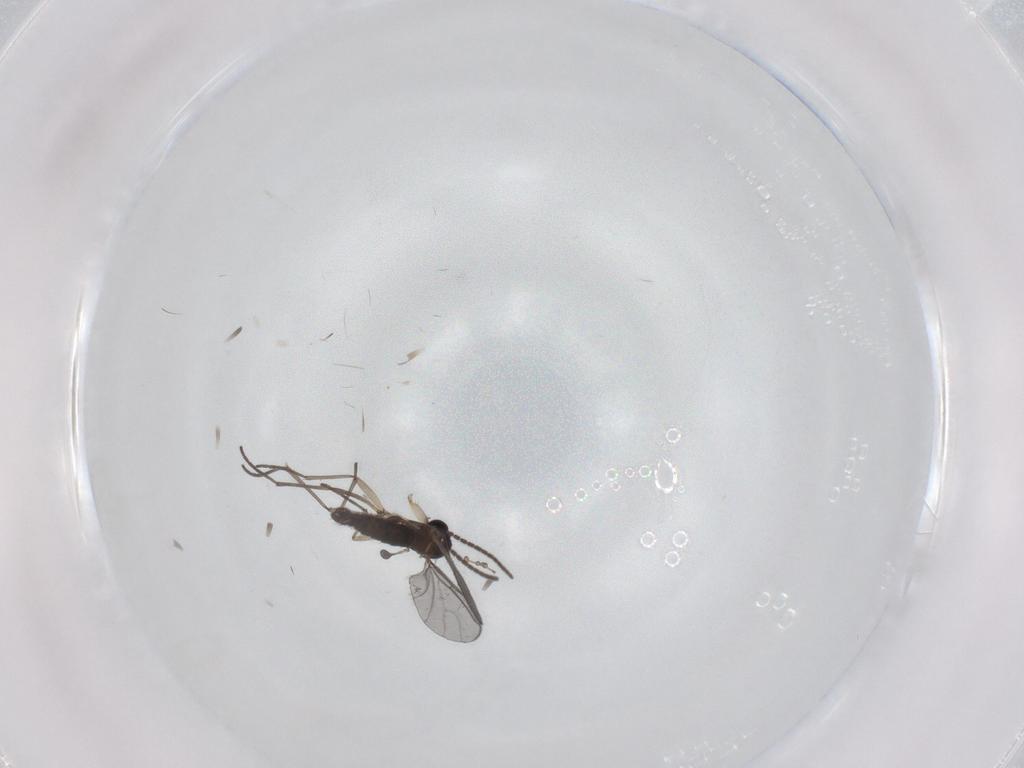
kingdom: Animalia
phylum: Arthropoda
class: Insecta
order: Diptera
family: Sciaridae
